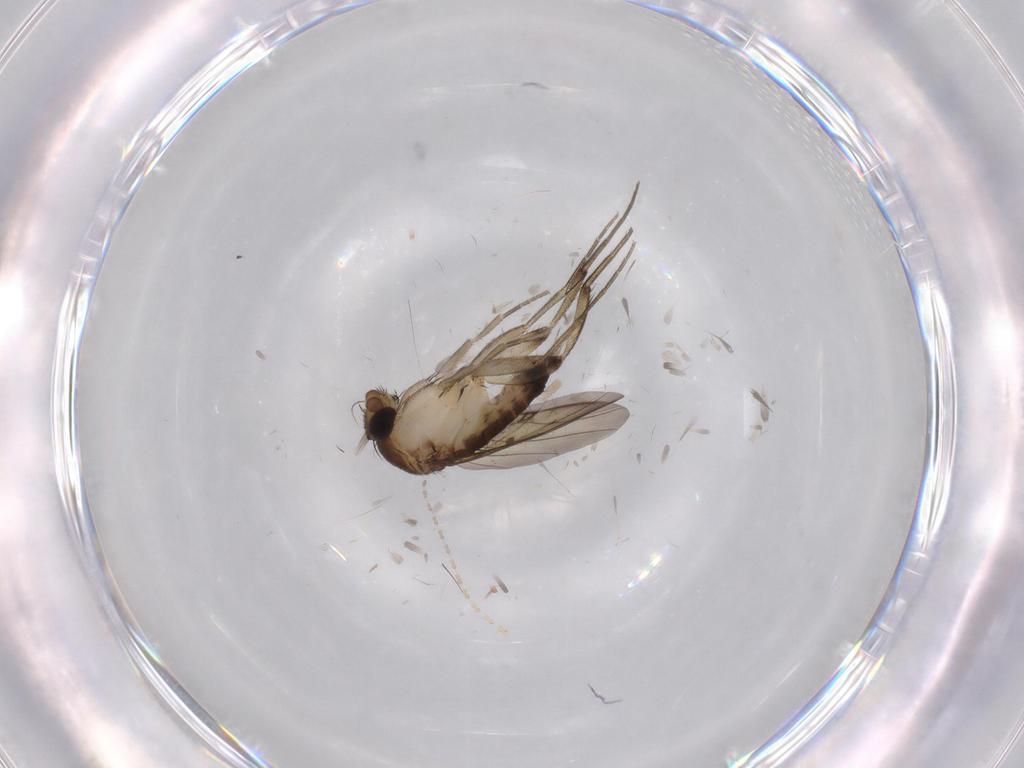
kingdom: Animalia
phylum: Arthropoda
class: Insecta
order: Diptera
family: Phoridae
